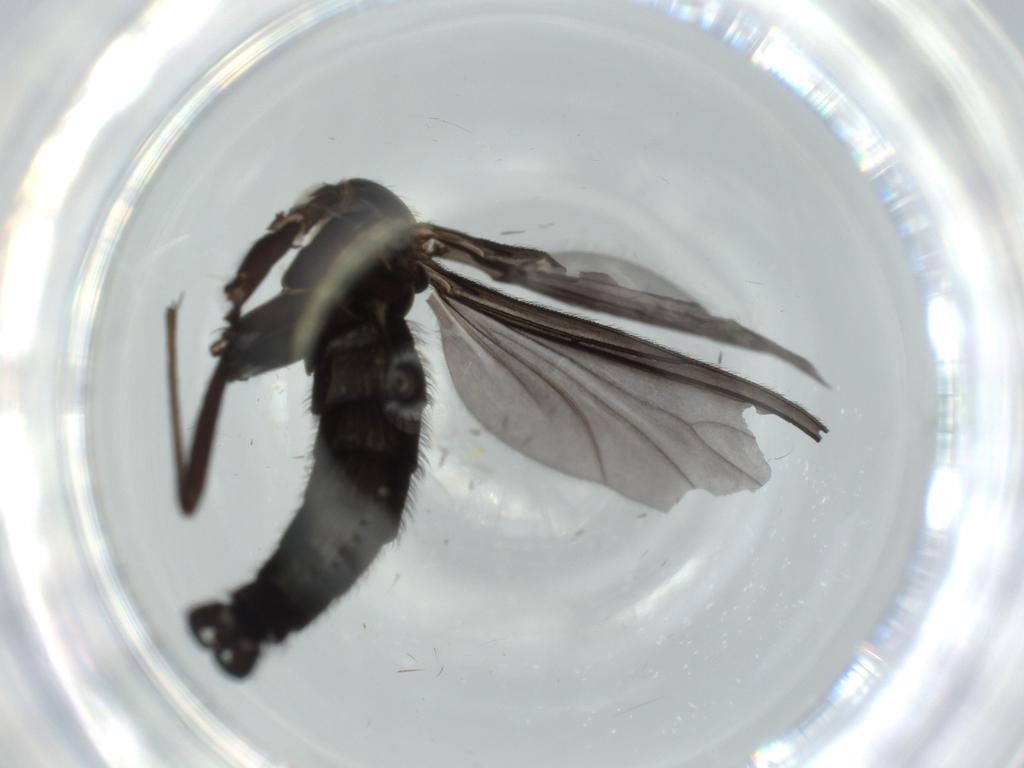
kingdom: Animalia
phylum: Arthropoda
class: Insecta
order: Diptera
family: Sciaridae
